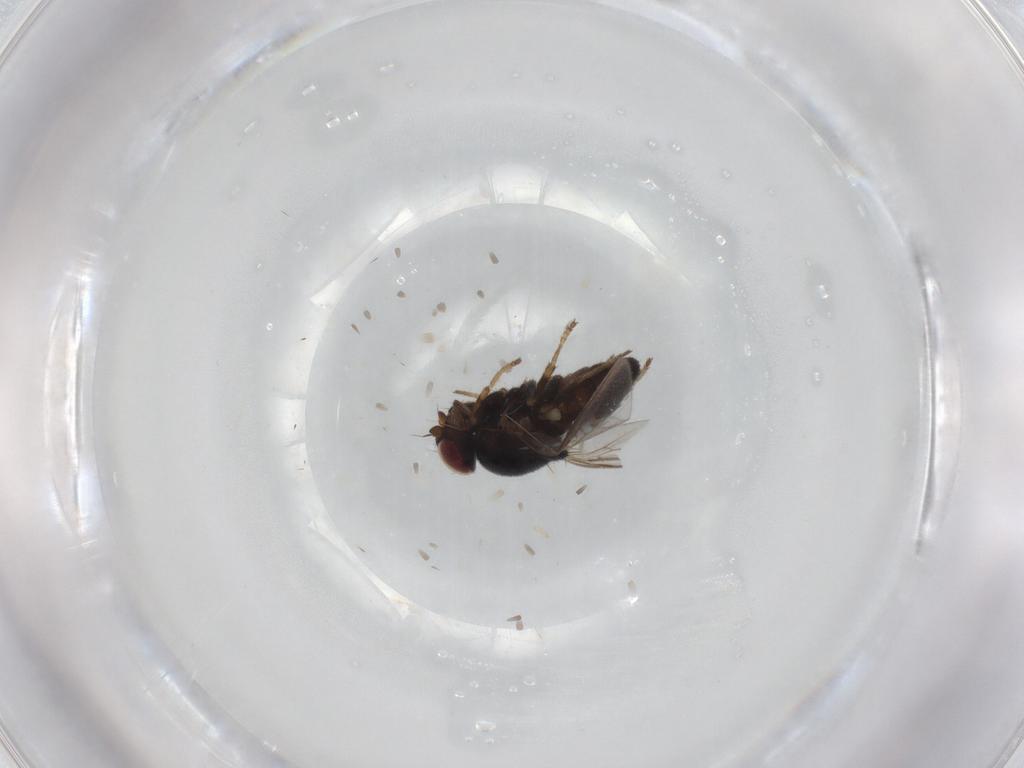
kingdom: Animalia
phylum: Arthropoda
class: Insecta
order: Diptera
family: Chloropidae
